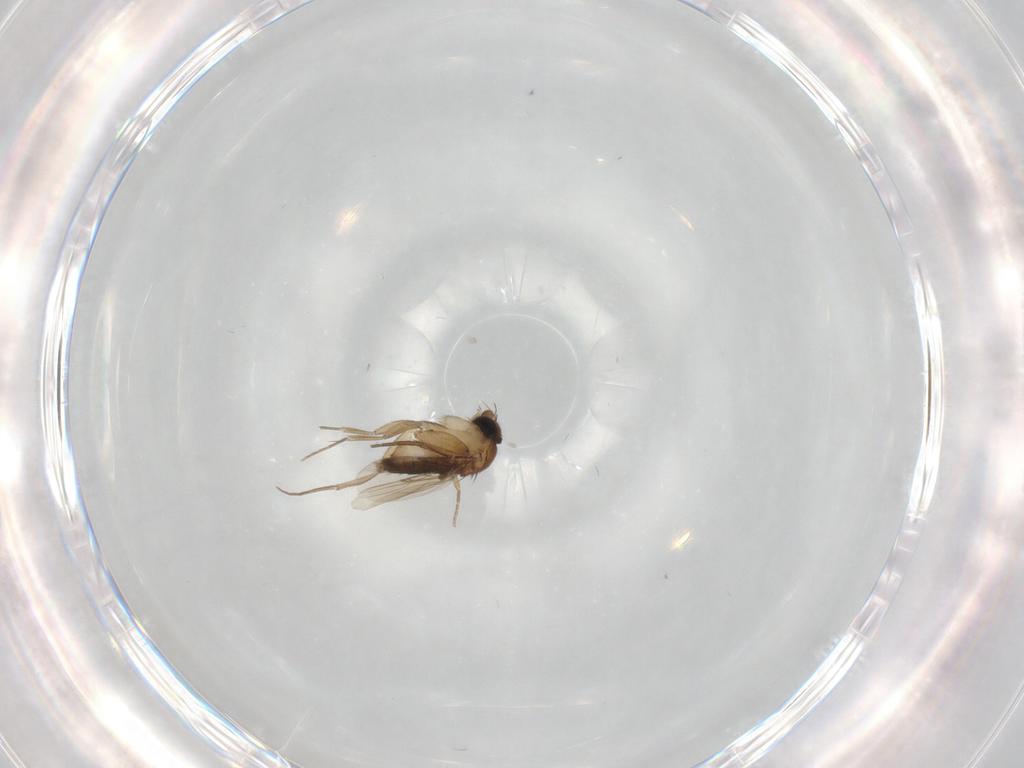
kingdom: Animalia
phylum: Arthropoda
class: Insecta
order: Diptera
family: Phoridae
